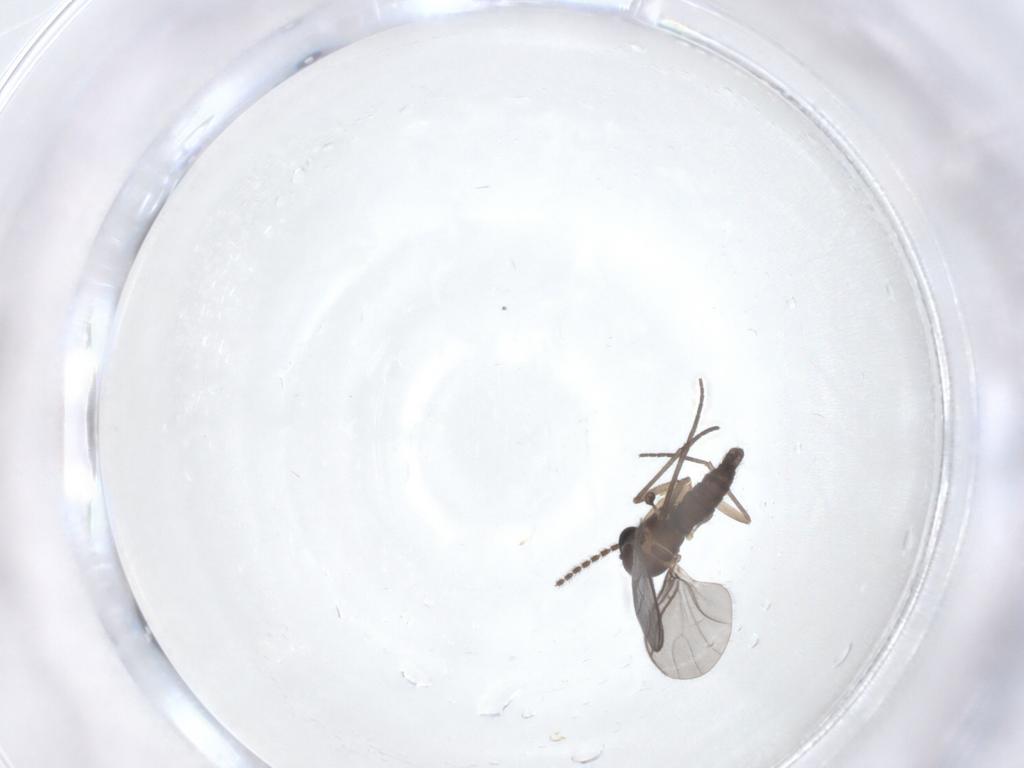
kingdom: Animalia
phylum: Arthropoda
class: Insecta
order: Diptera
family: Sciaridae
